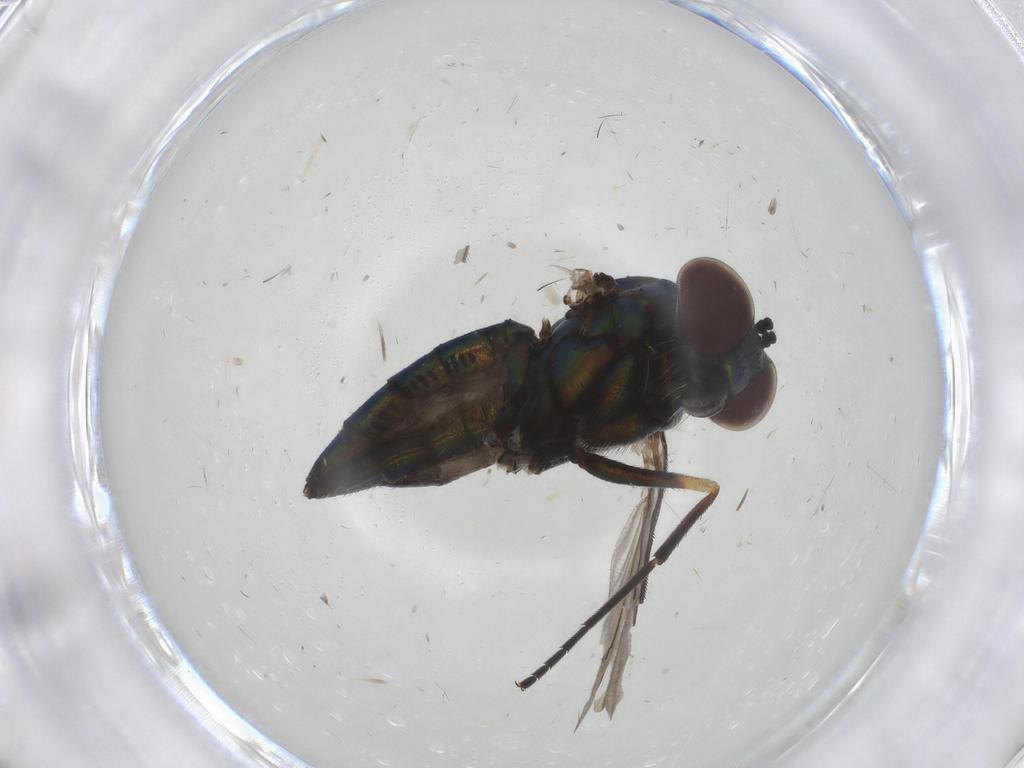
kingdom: Animalia
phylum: Arthropoda
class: Insecta
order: Diptera
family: Dolichopodidae
